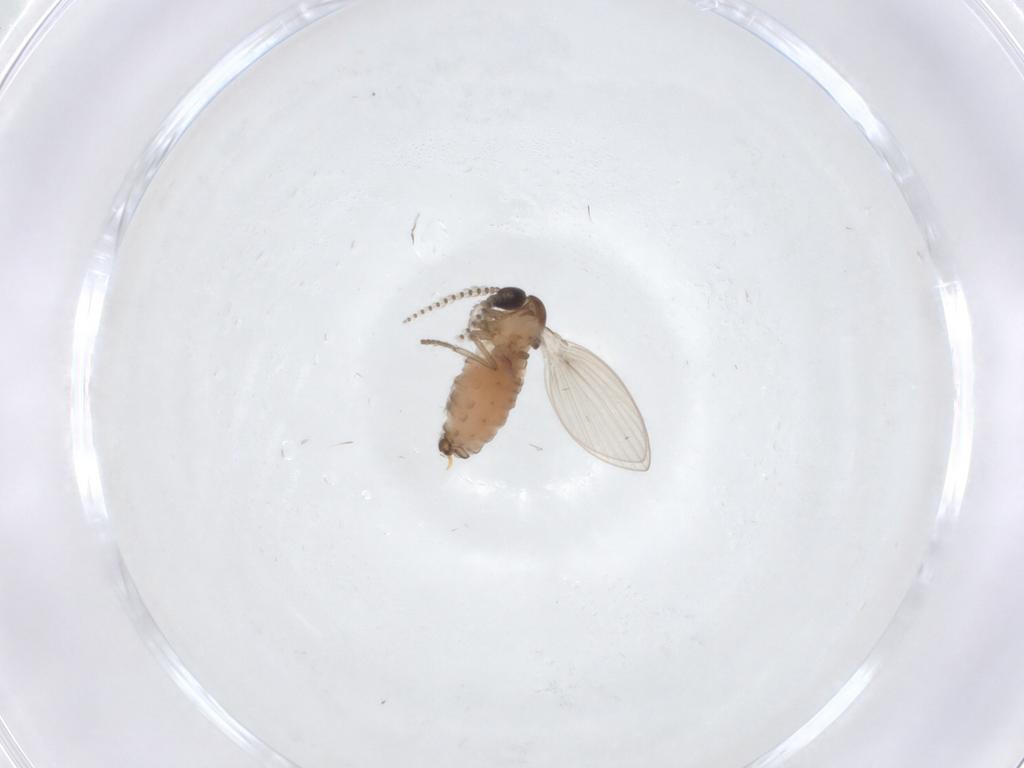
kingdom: Animalia
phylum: Arthropoda
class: Insecta
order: Diptera
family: Psychodidae
